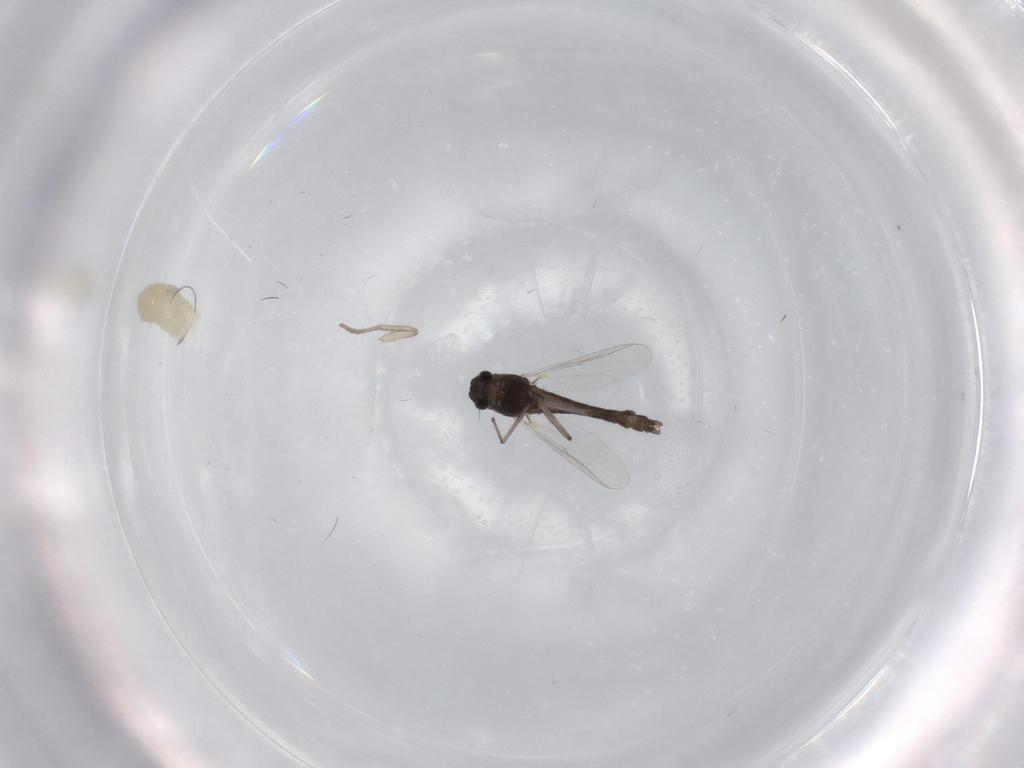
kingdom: Animalia
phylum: Arthropoda
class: Insecta
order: Diptera
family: Chironomidae
